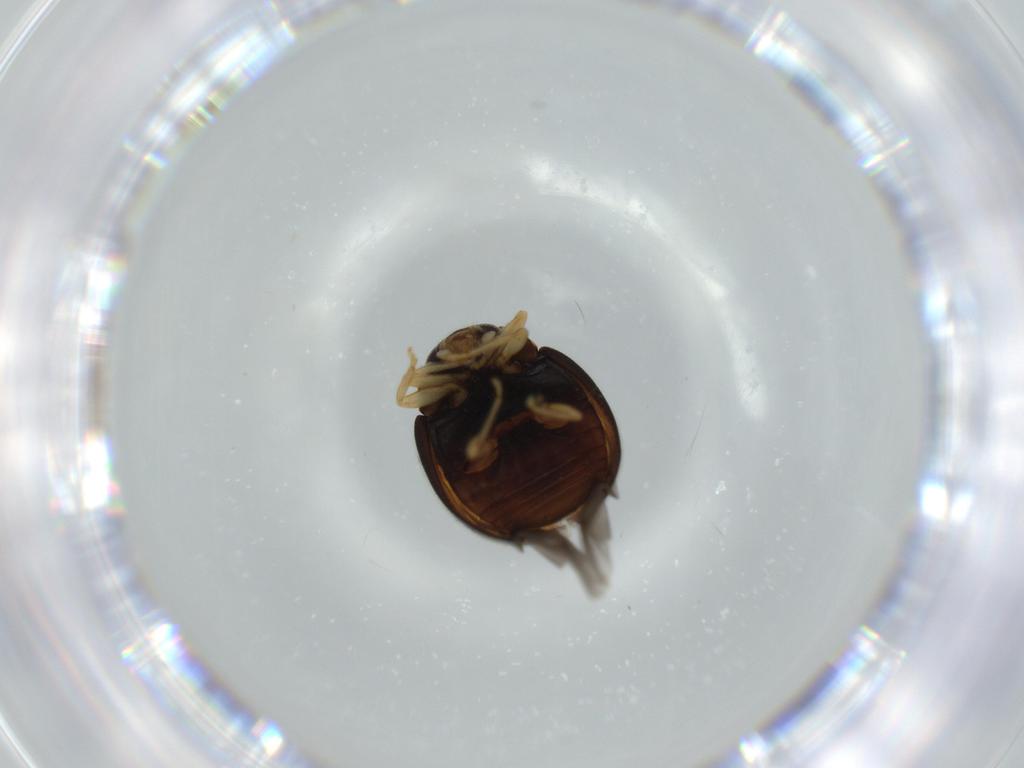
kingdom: Animalia
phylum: Arthropoda
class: Insecta
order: Coleoptera
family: Coccinellidae
